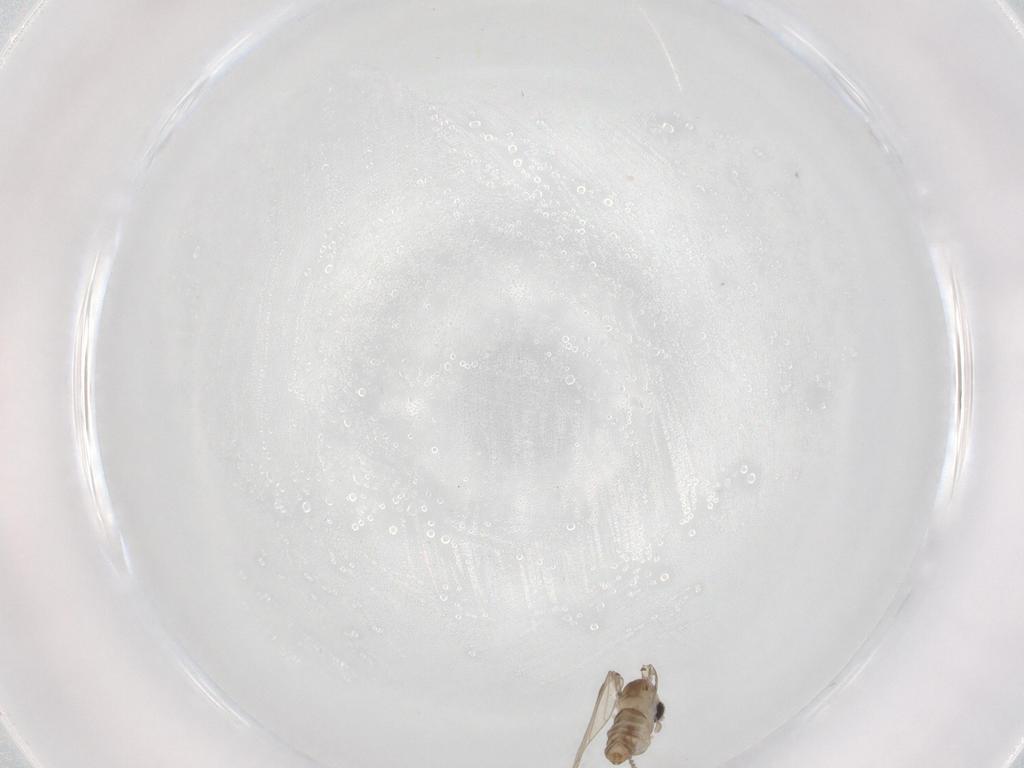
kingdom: Animalia
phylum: Arthropoda
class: Insecta
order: Diptera
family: Psychodidae
